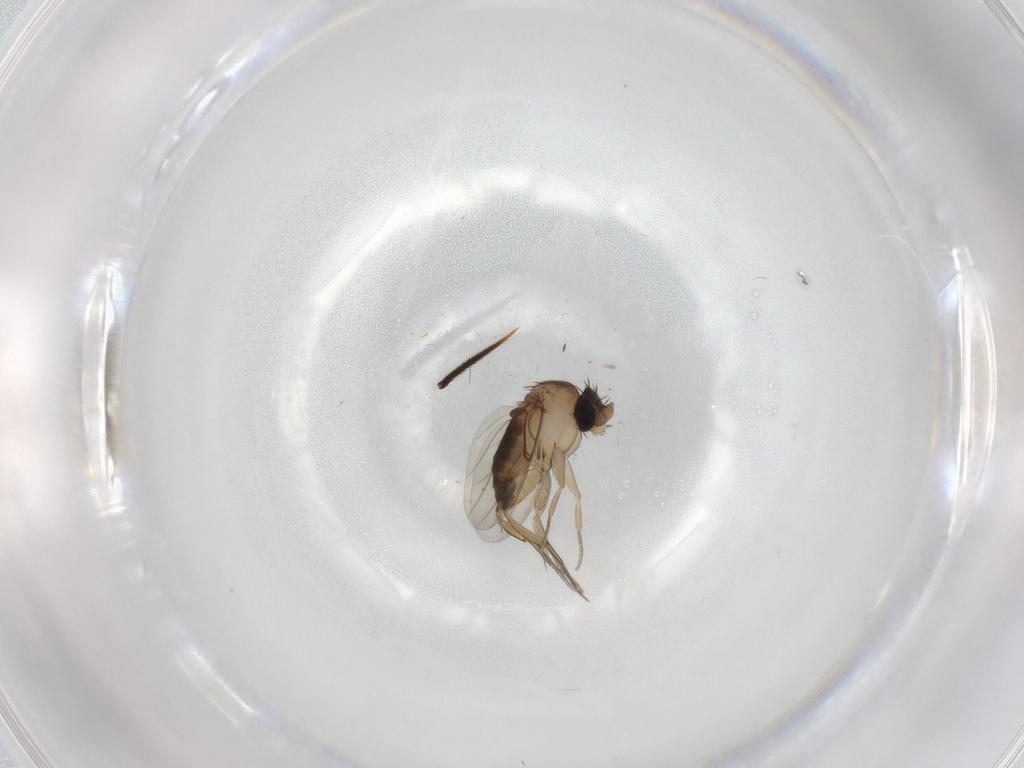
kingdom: Animalia
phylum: Arthropoda
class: Insecta
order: Diptera
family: Phoridae
